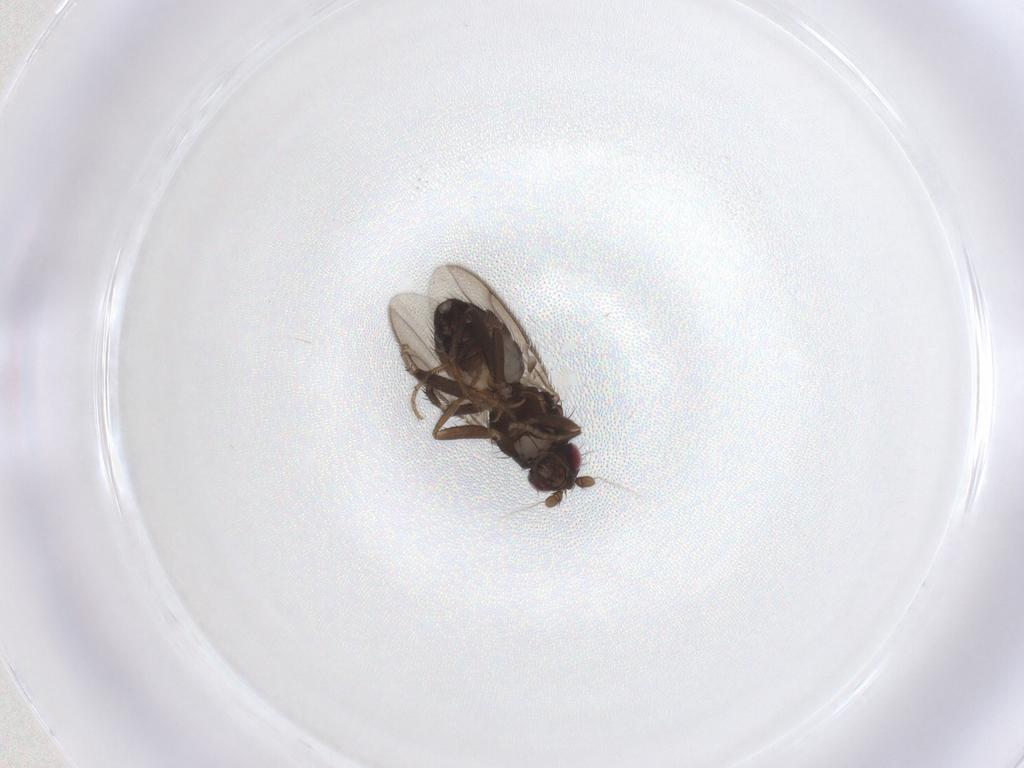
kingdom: Animalia
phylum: Arthropoda
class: Insecta
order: Diptera
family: Sphaeroceridae
